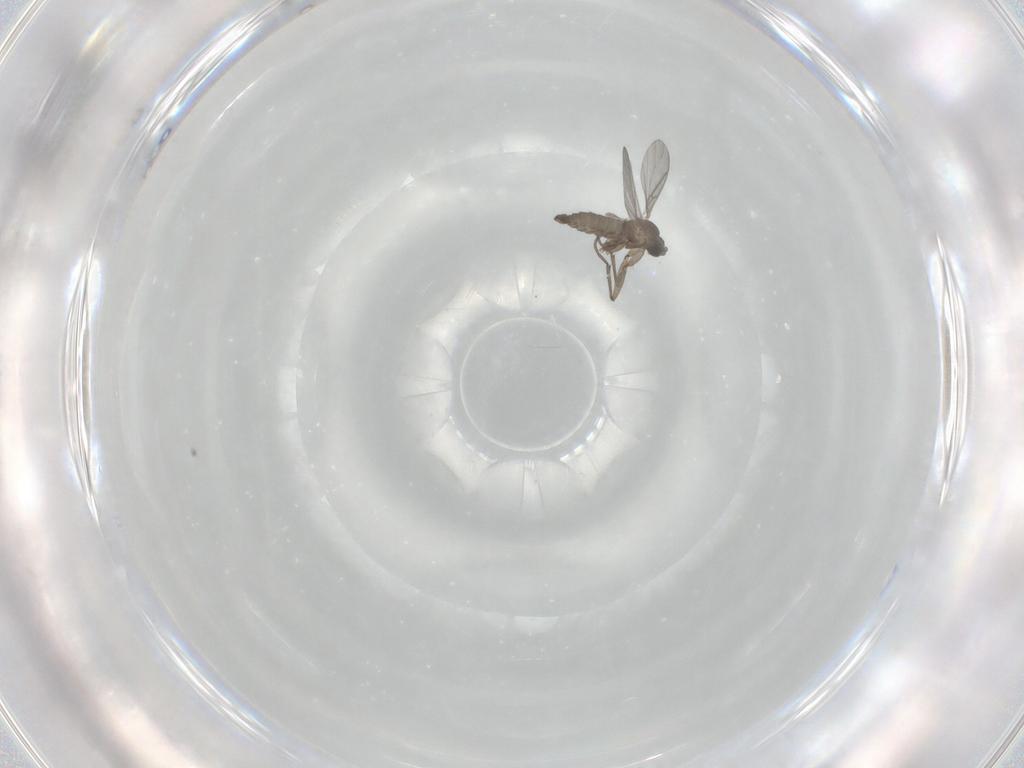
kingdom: Animalia
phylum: Arthropoda
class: Insecta
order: Diptera
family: Sciaridae
